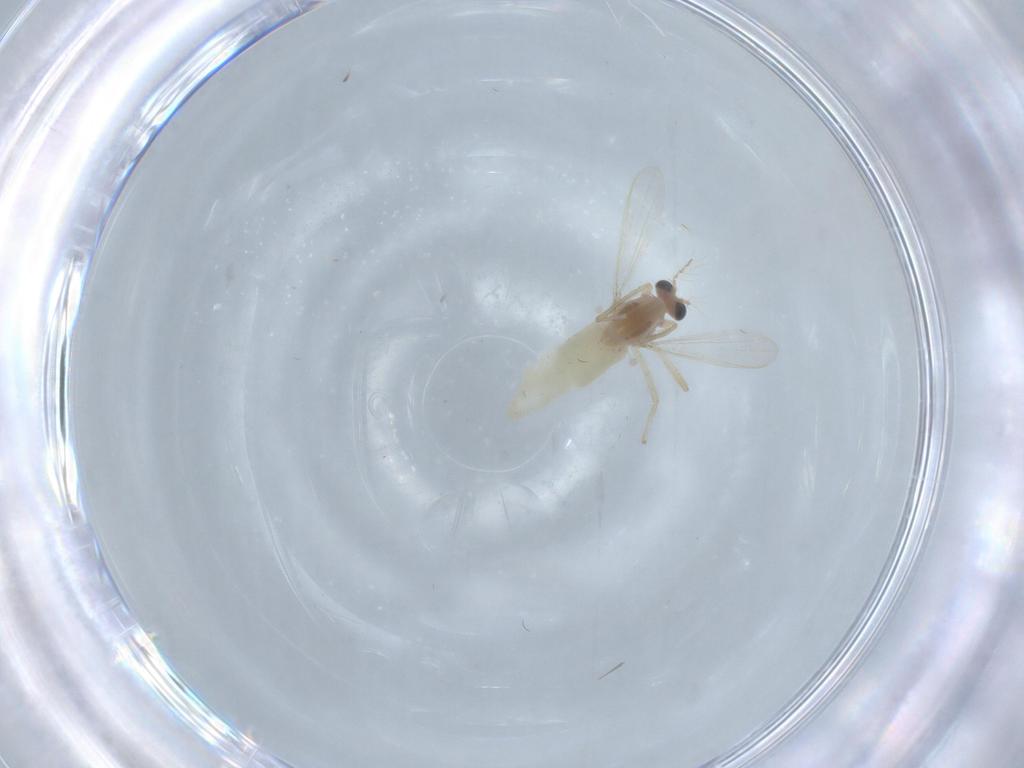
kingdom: Animalia
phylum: Arthropoda
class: Insecta
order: Diptera
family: Chironomidae
